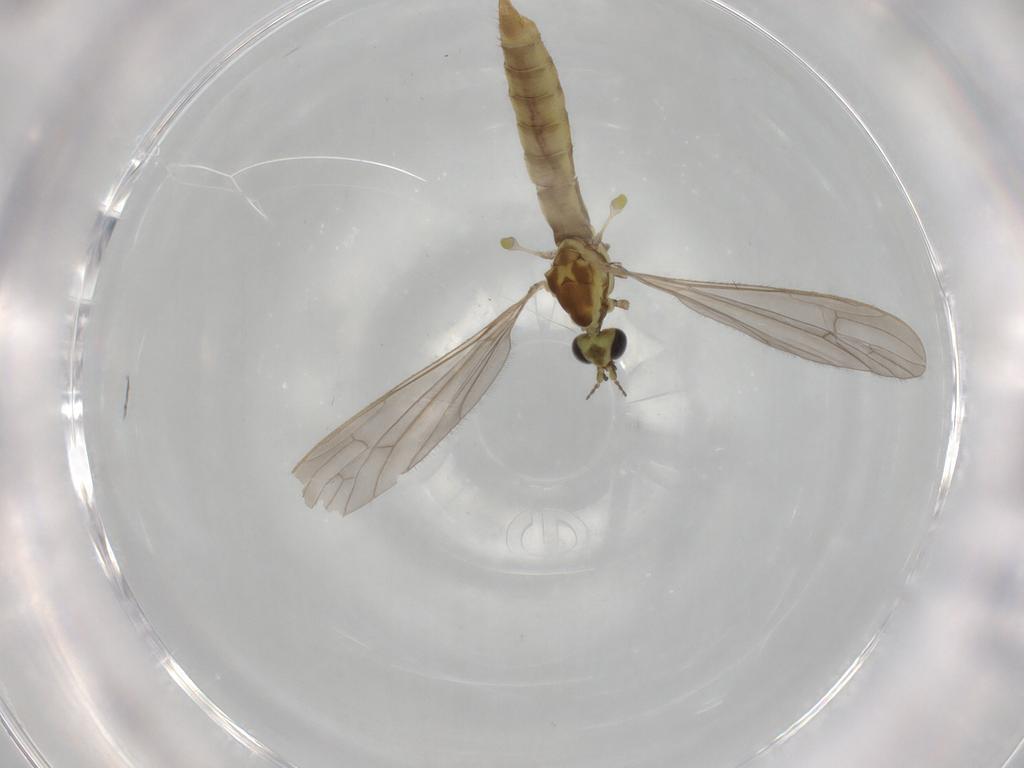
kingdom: Animalia
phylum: Arthropoda
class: Insecta
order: Diptera
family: Limoniidae
